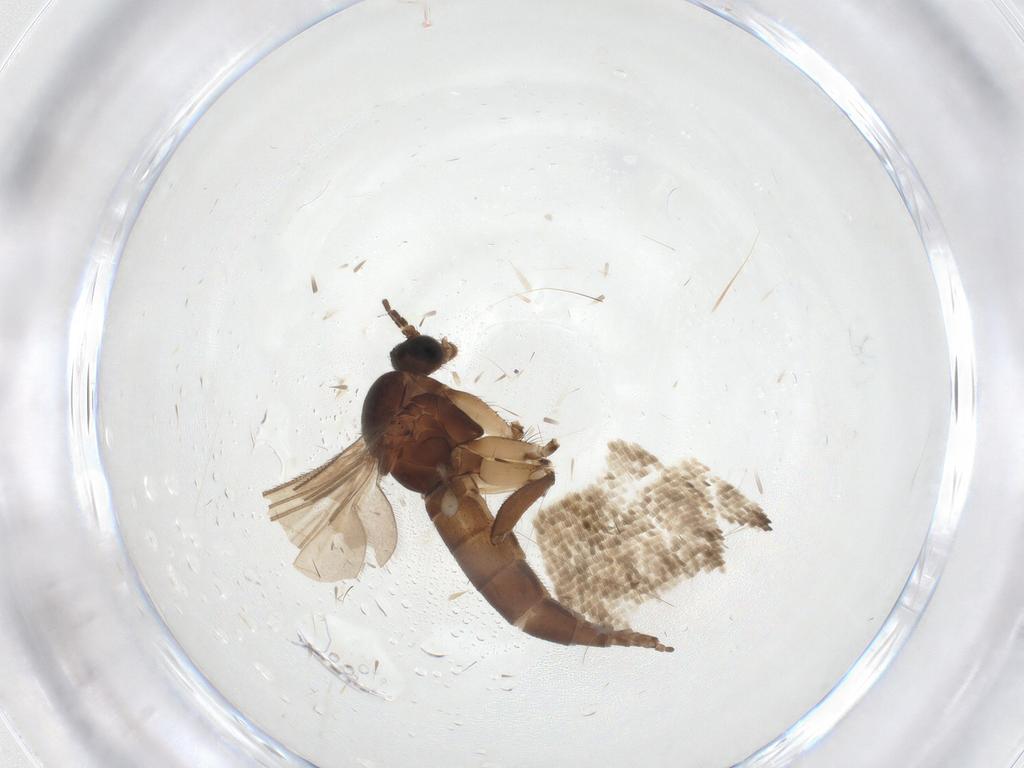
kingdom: Animalia
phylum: Arthropoda
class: Insecta
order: Diptera
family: Sciaridae
